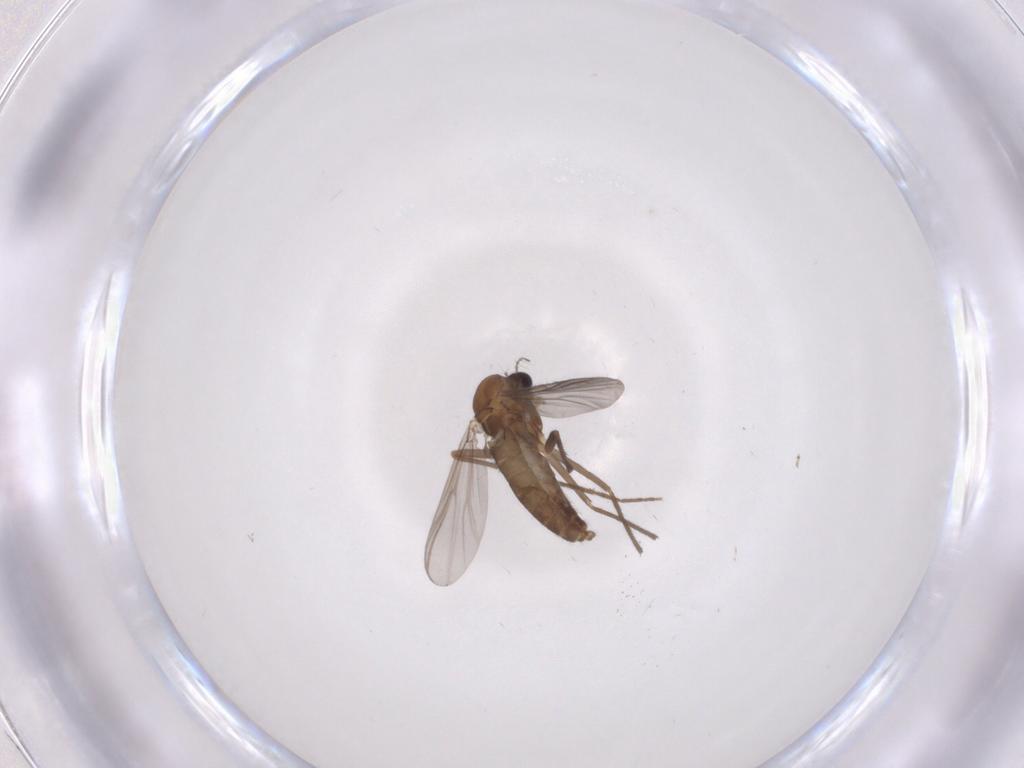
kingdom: Animalia
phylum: Arthropoda
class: Insecta
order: Diptera
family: Chironomidae
